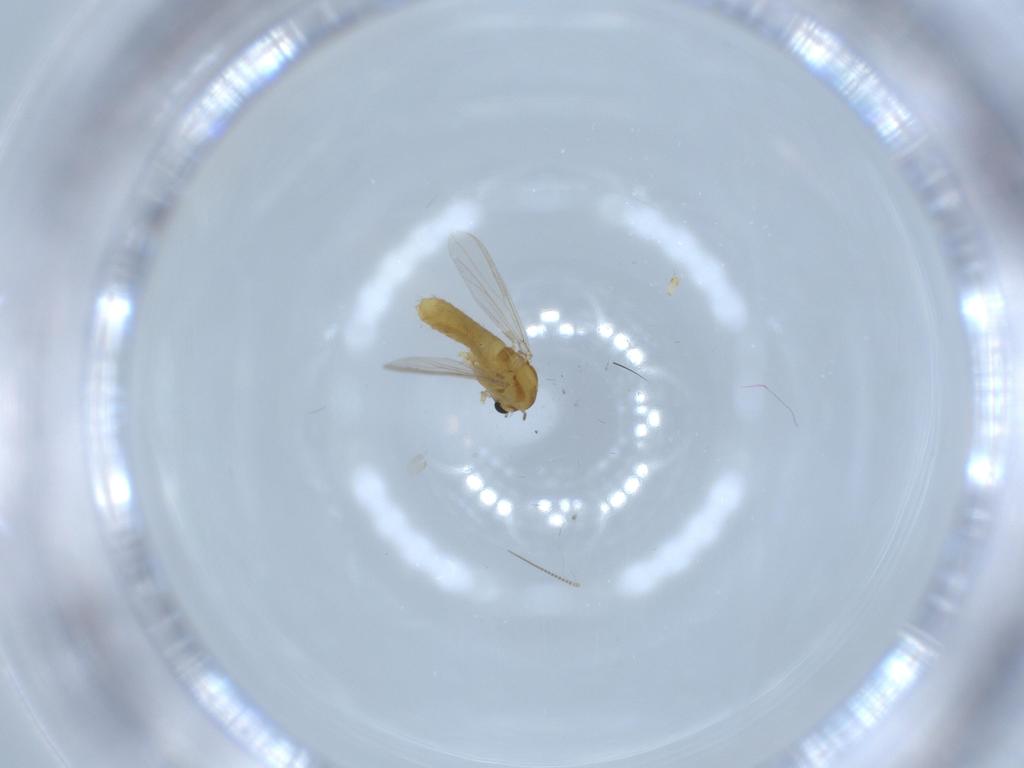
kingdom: Animalia
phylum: Arthropoda
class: Insecta
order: Diptera
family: Chironomidae
